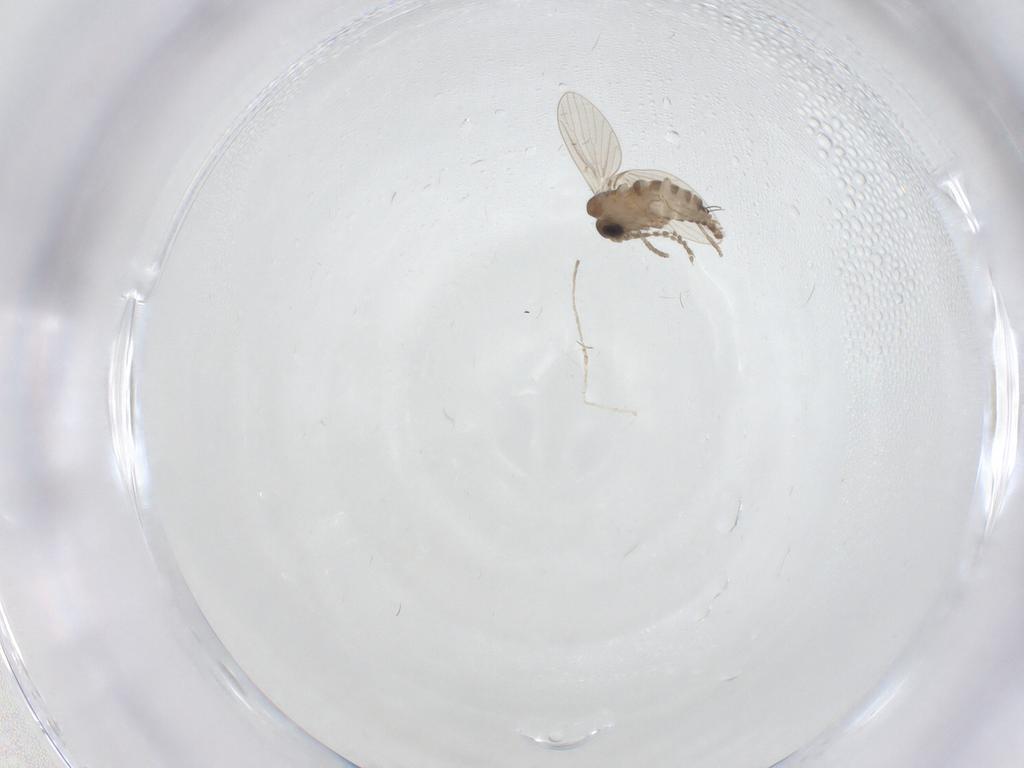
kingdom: Animalia
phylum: Arthropoda
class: Insecta
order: Diptera
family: Cecidomyiidae
